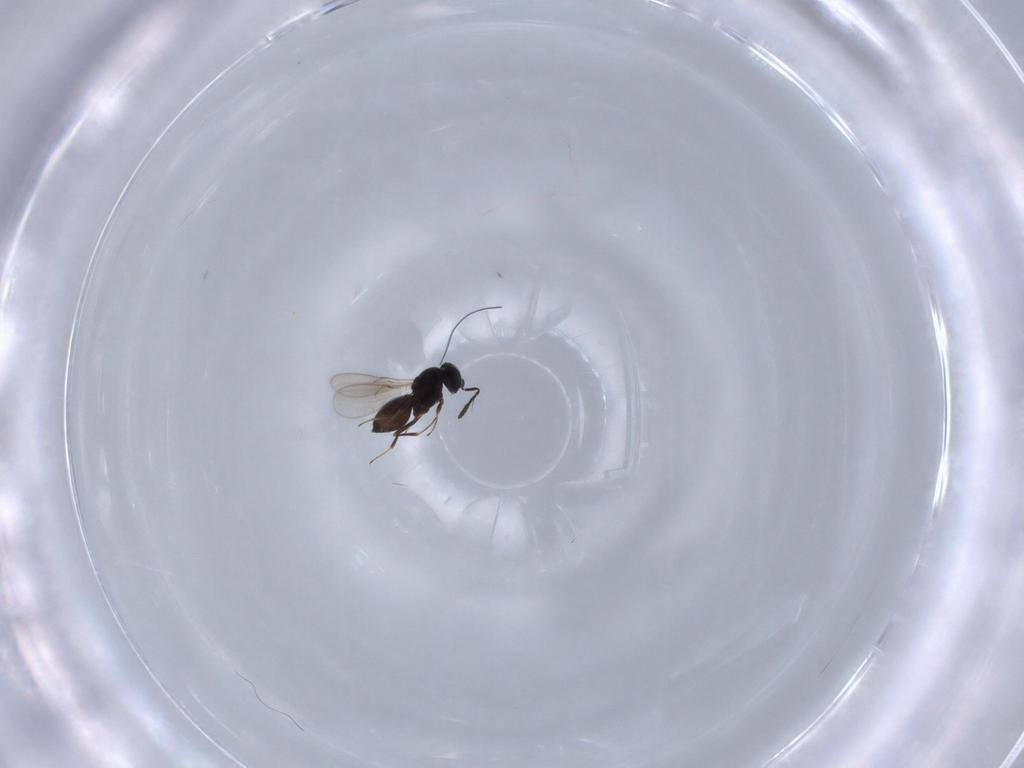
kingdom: Animalia
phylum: Arthropoda
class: Insecta
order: Hymenoptera
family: Scelionidae
